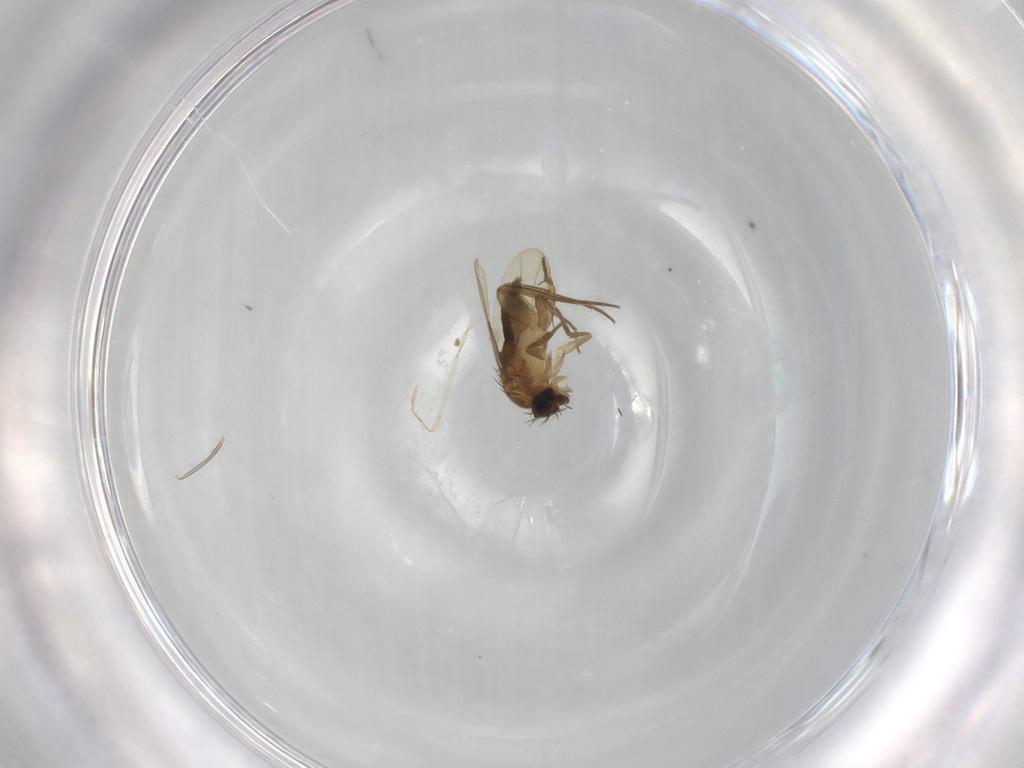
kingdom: Animalia
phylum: Arthropoda
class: Insecta
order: Diptera
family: Phoridae
